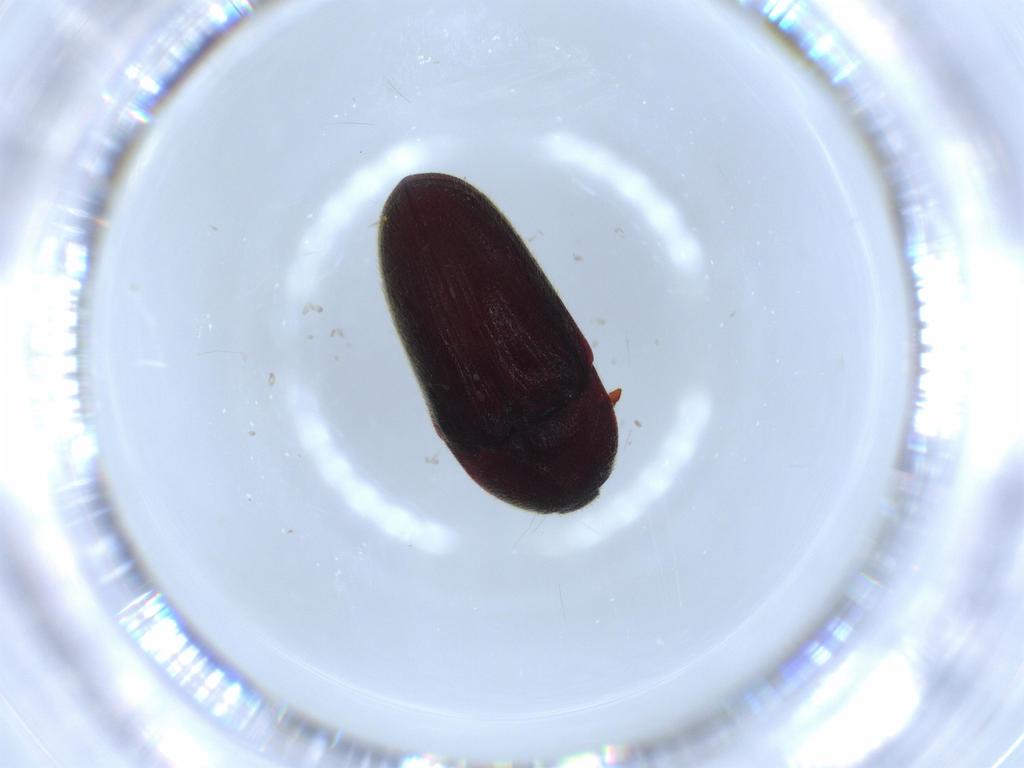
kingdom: Animalia
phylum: Arthropoda
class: Insecta
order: Coleoptera
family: Throscidae
